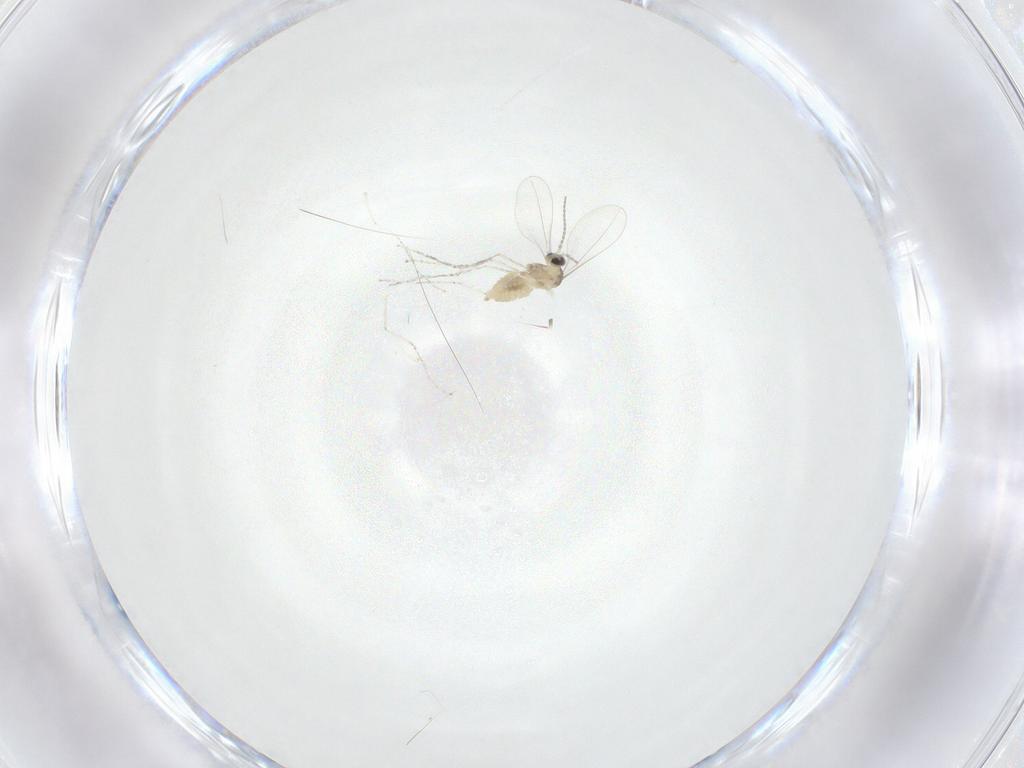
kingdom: Animalia
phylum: Arthropoda
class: Insecta
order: Diptera
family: Cecidomyiidae
